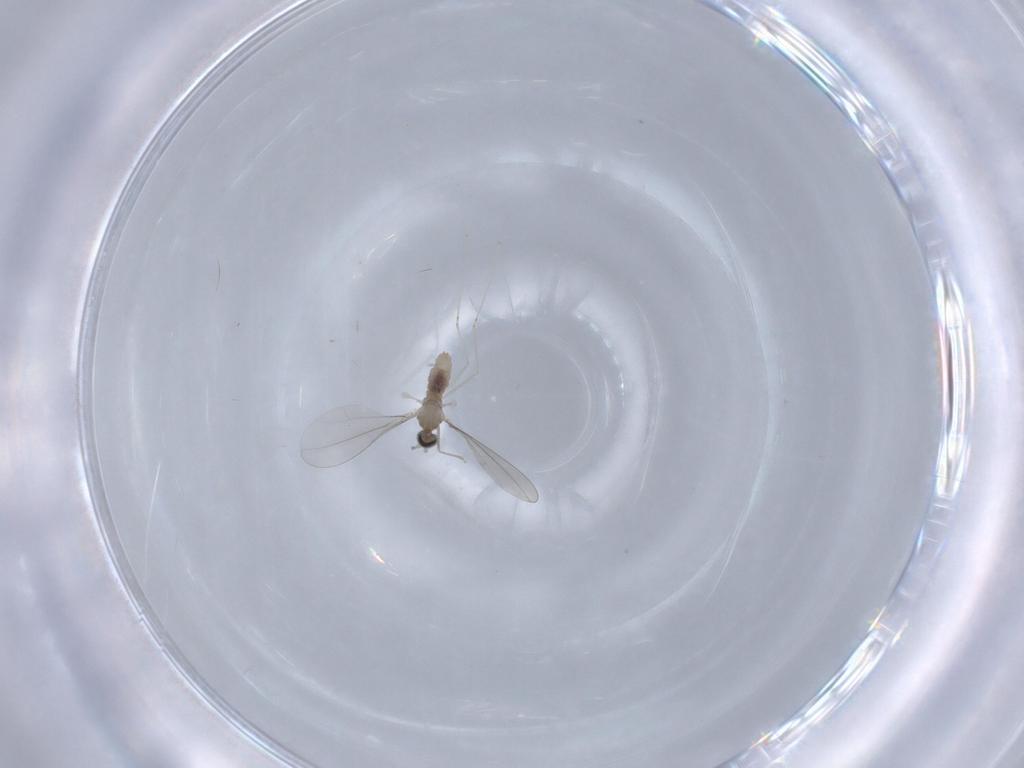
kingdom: Animalia
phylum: Arthropoda
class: Insecta
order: Diptera
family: Cecidomyiidae
